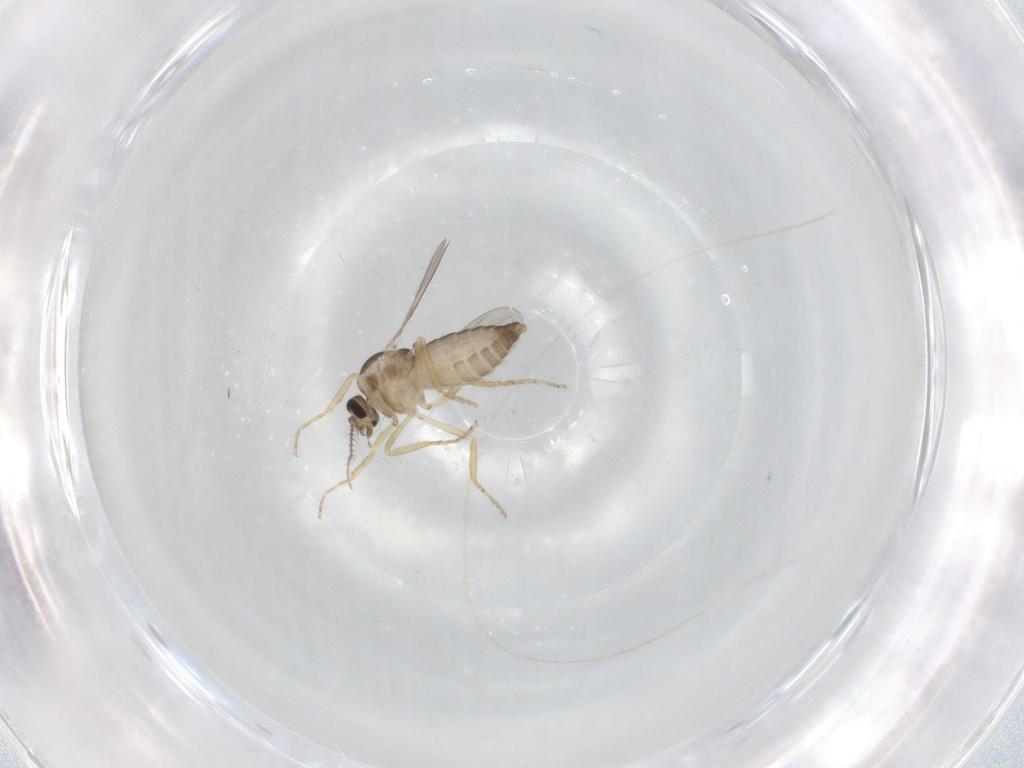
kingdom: Animalia
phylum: Arthropoda
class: Insecta
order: Diptera
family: Ceratopogonidae
